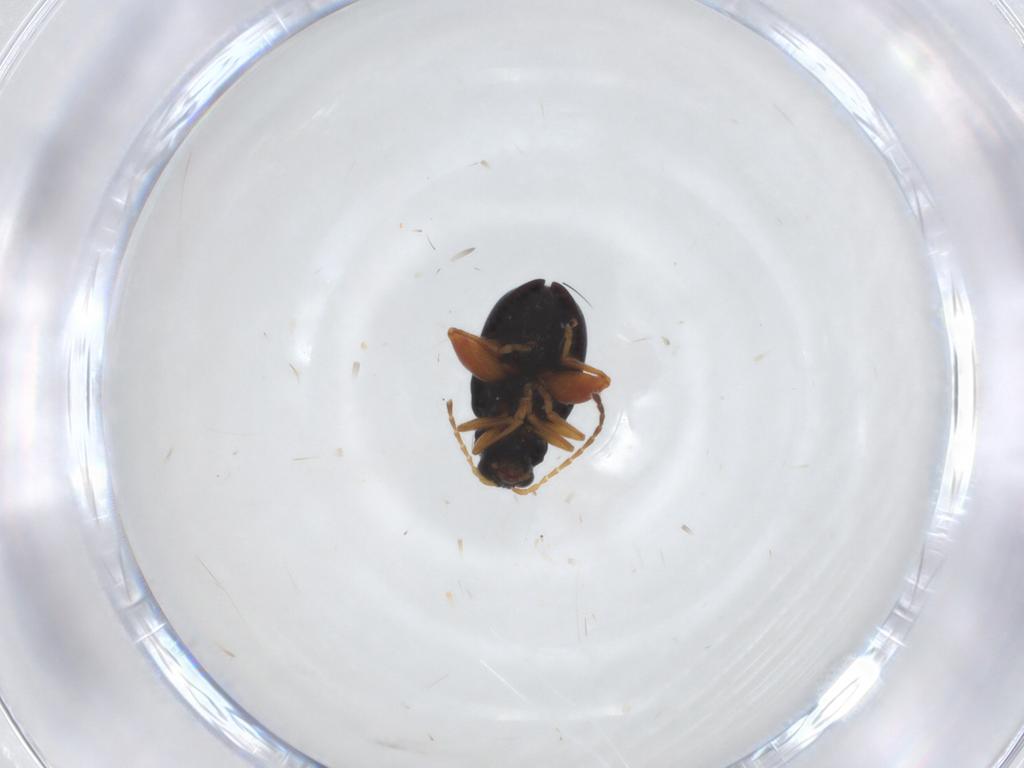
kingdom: Animalia
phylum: Arthropoda
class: Insecta
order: Coleoptera
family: Chrysomelidae
